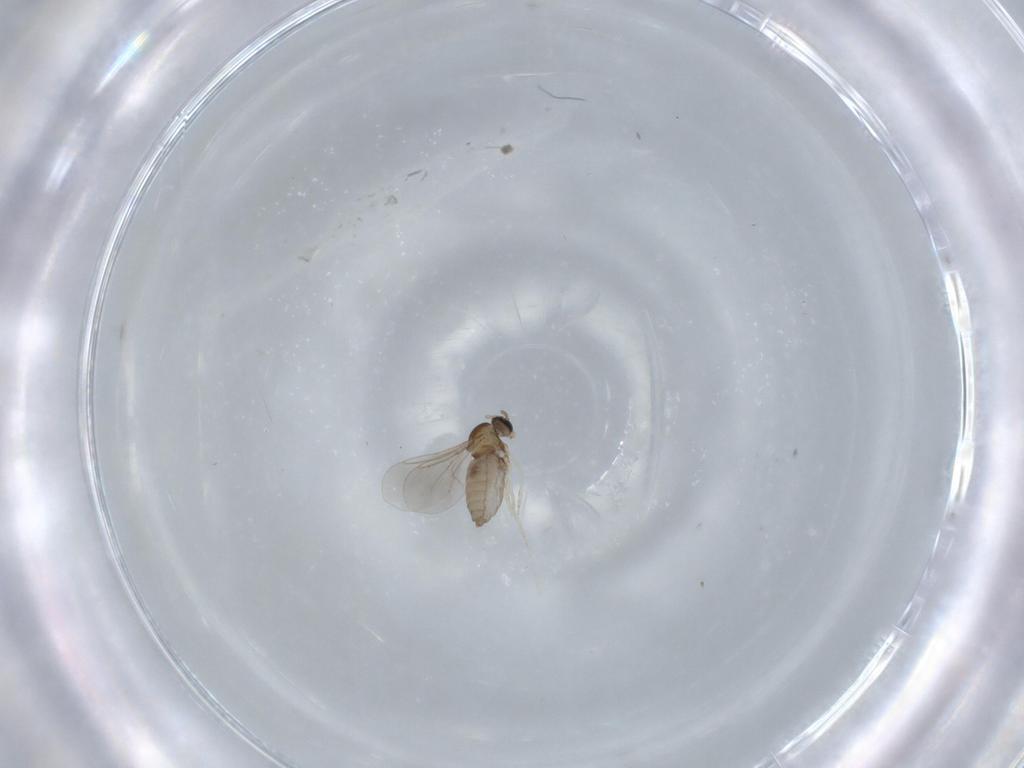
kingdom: Animalia
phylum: Arthropoda
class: Insecta
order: Diptera
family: Cecidomyiidae
